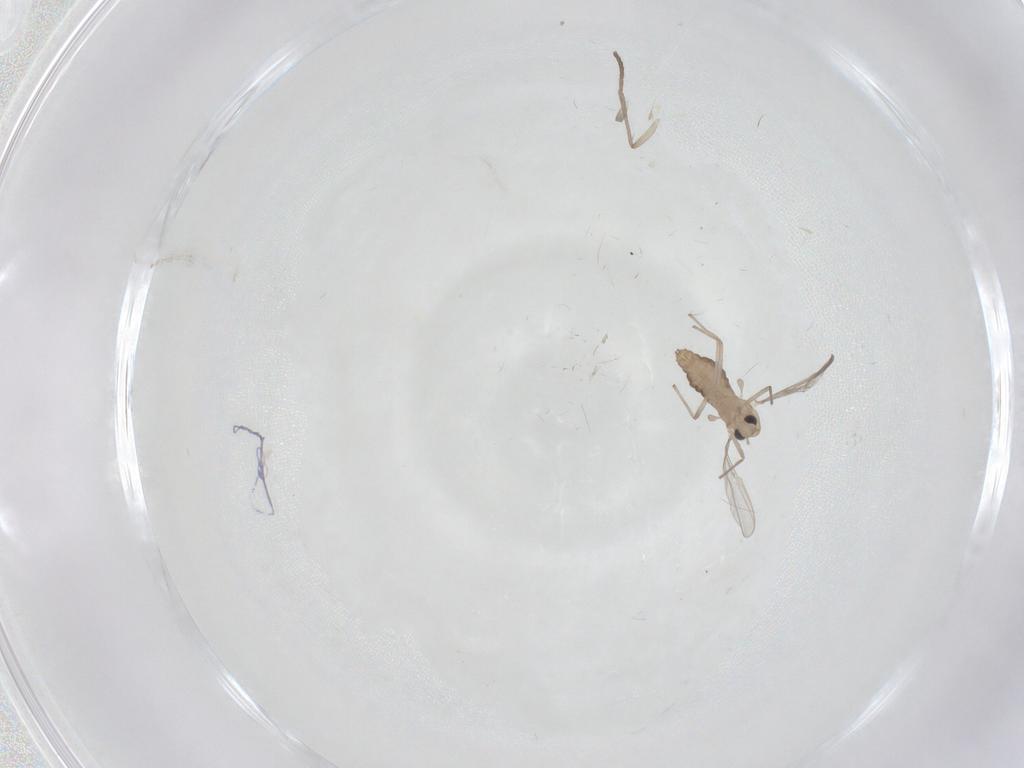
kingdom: Animalia
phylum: Arthropoda
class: Insecta
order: Diptera
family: Chironomidae
